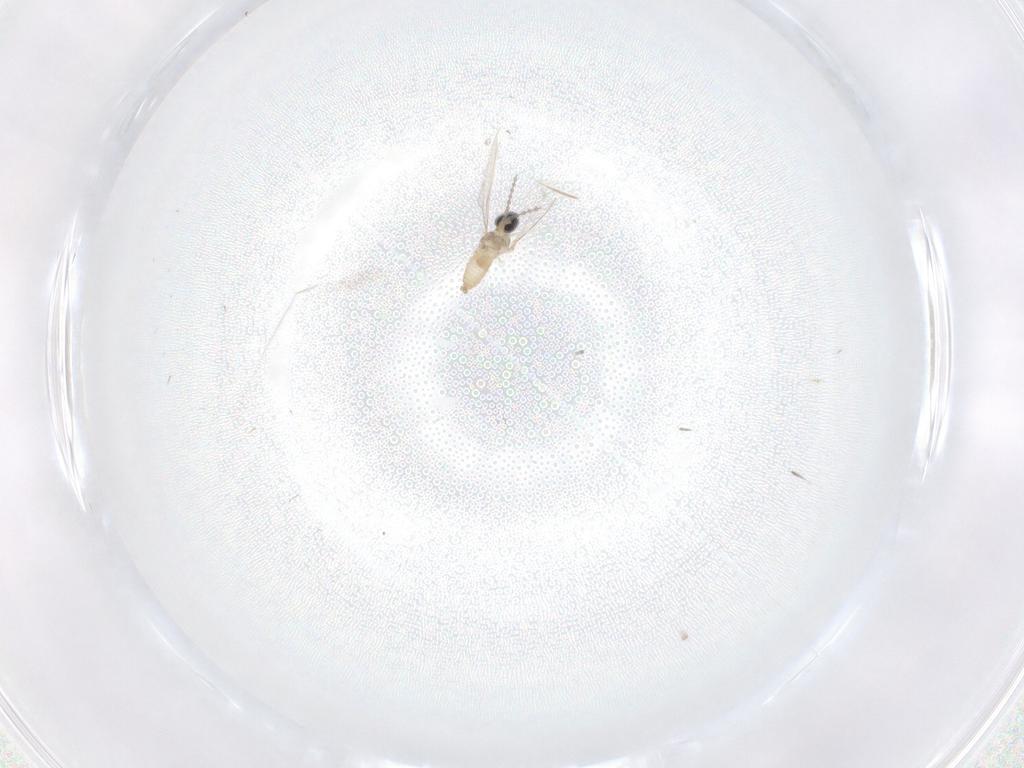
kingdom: Animalia
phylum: Arthropoda
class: Insecta
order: Diptera
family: Cecidomyiidae
